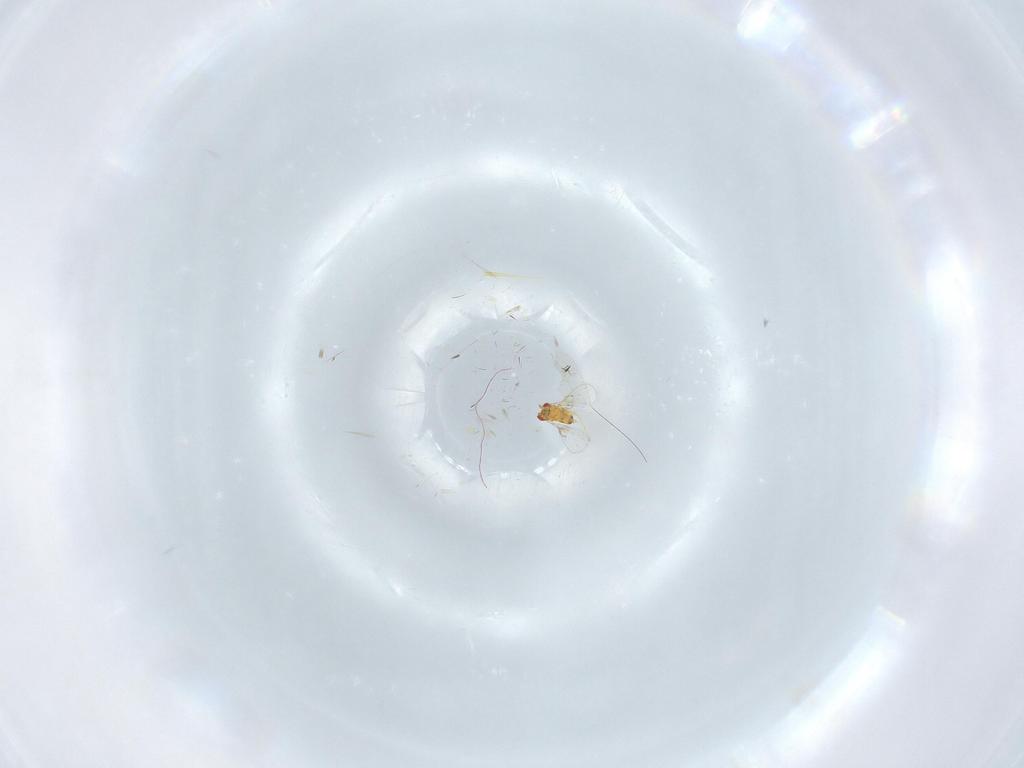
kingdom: Animalia
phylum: Arthropoda
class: Insecta
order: Hymenoptera
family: Trichogrammatidae
